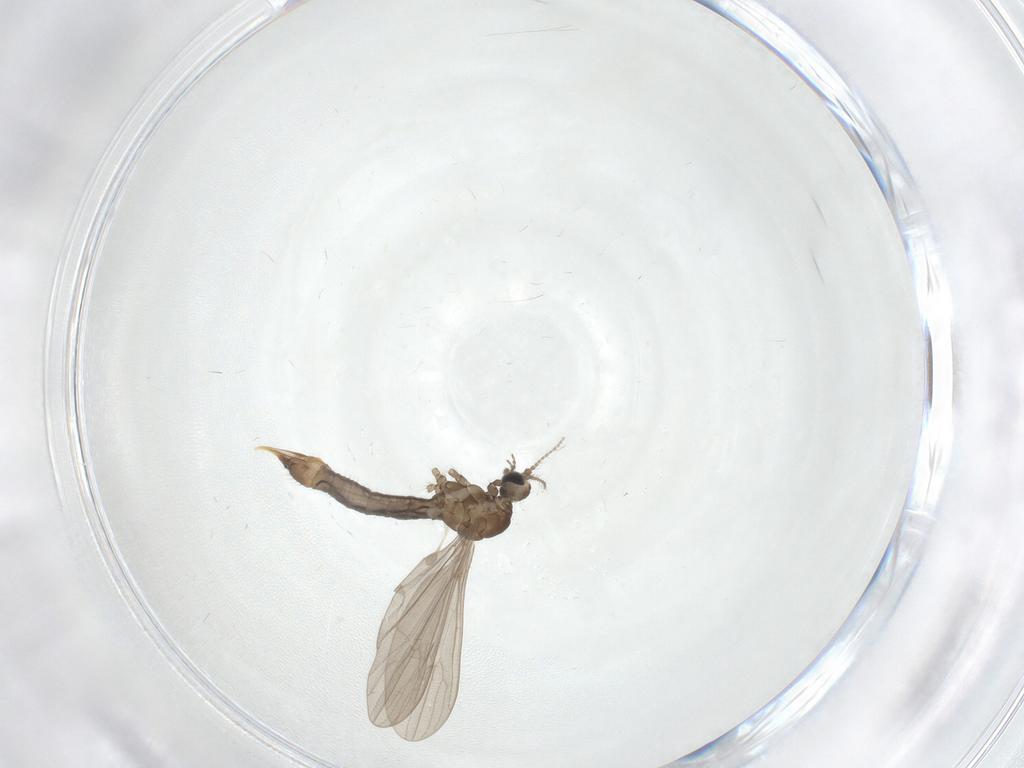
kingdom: Animalia
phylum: Arthropoda
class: Insecta
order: Diptera
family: Limoniidae
